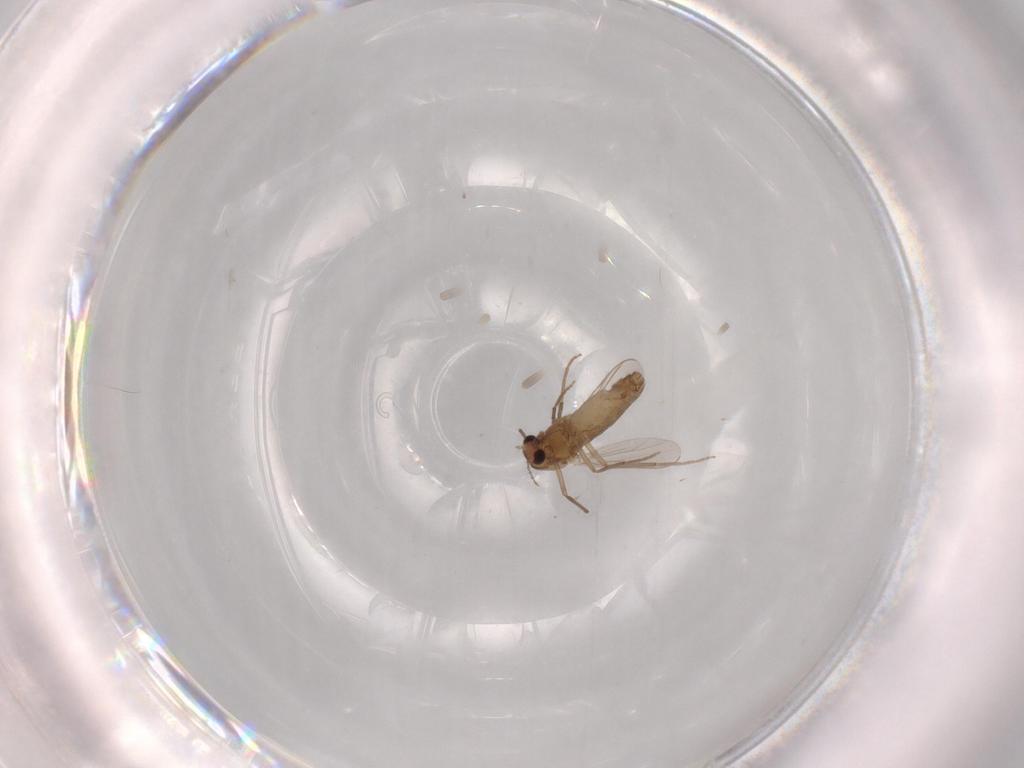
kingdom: Animalia
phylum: Arthropoda
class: Insecta
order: Diptera
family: Chironomidae
